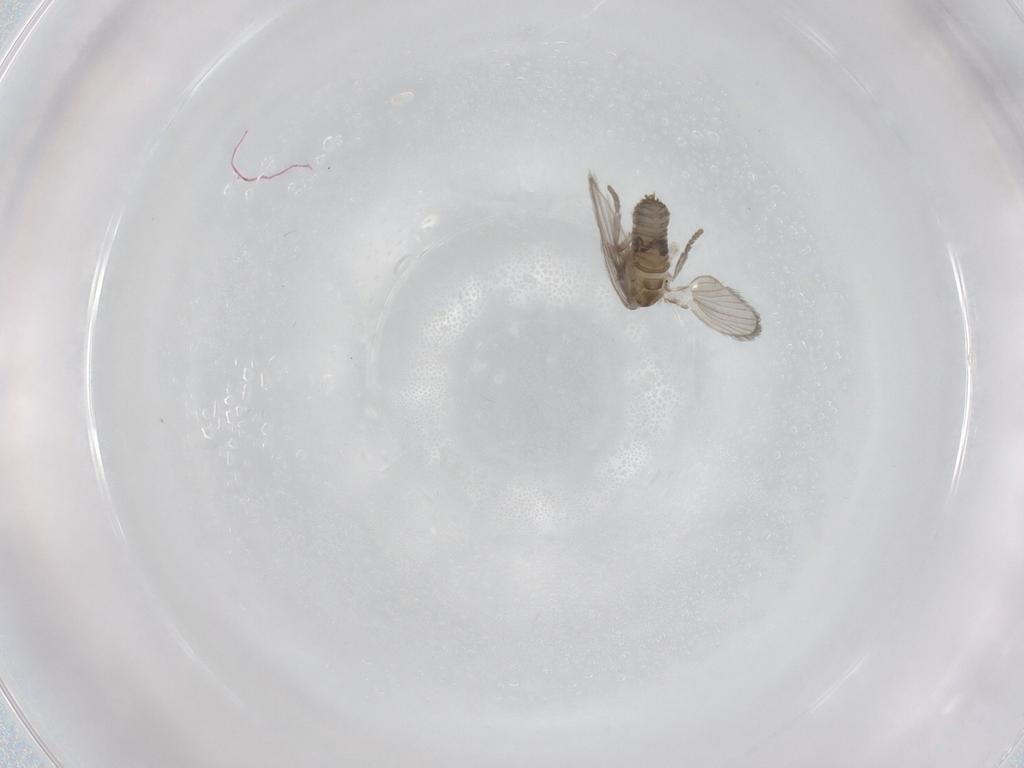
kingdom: Animalia
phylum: Arthropoda
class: Insecta
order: Diptera
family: Psychodidae
